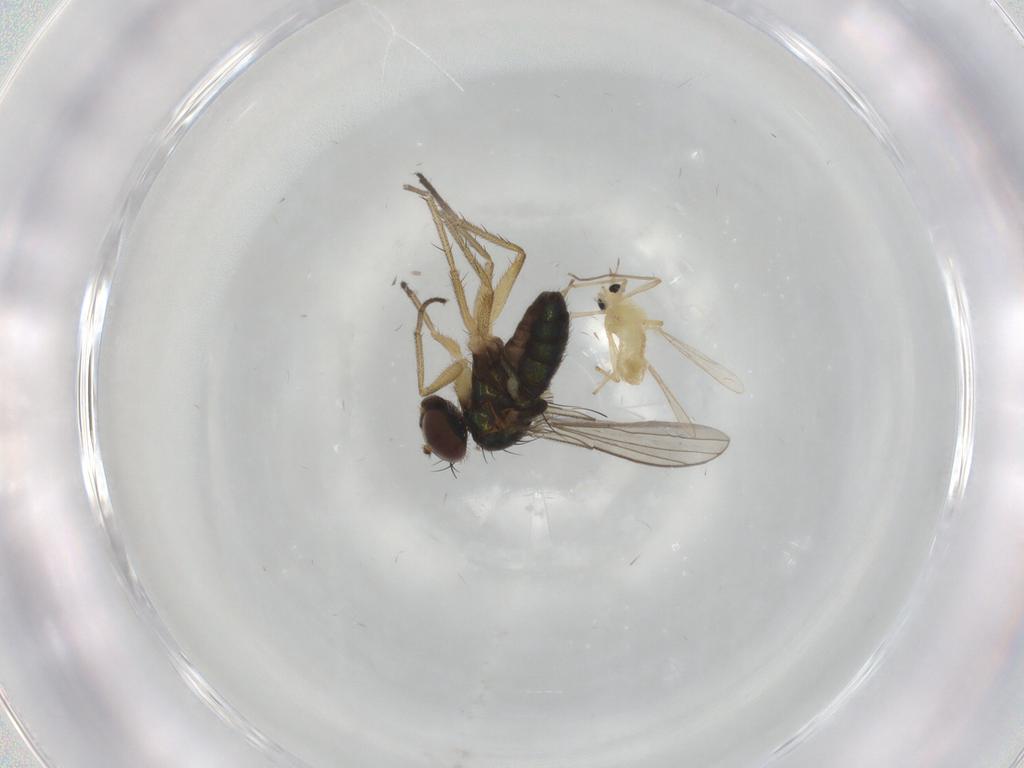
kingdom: Animalia
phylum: Arthropoda
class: Insecta
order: Diptera
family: Chironomidae
